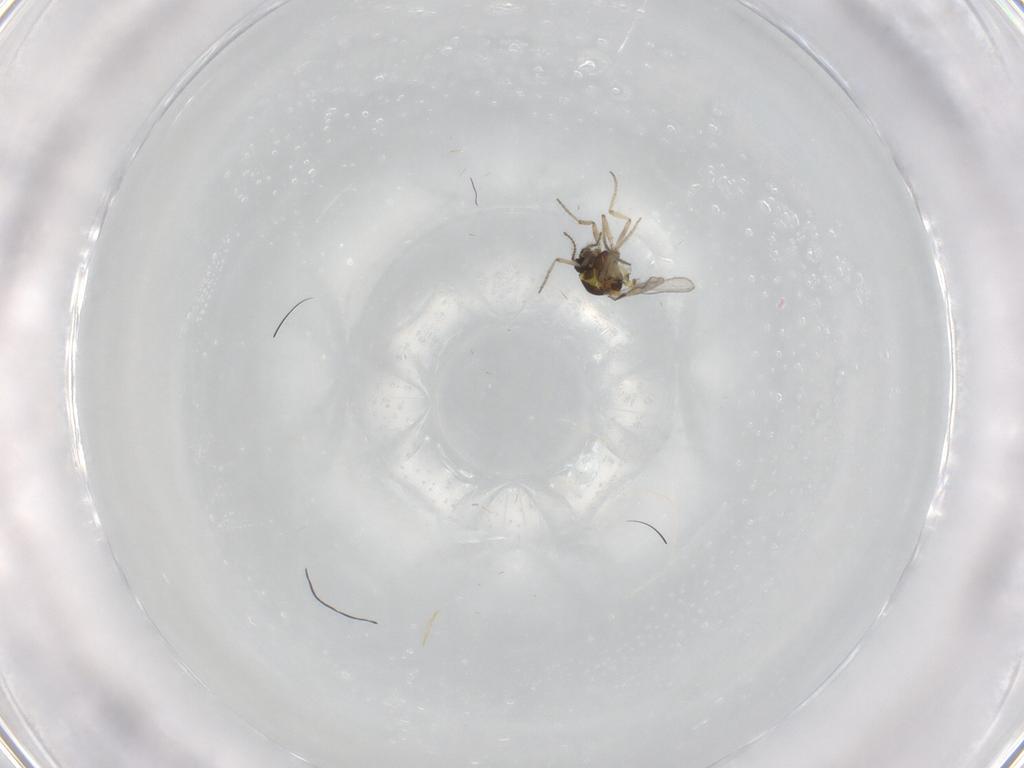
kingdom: Animalia
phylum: Arthropoda
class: Insecta
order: Diptera
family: Ceratopogonidae
